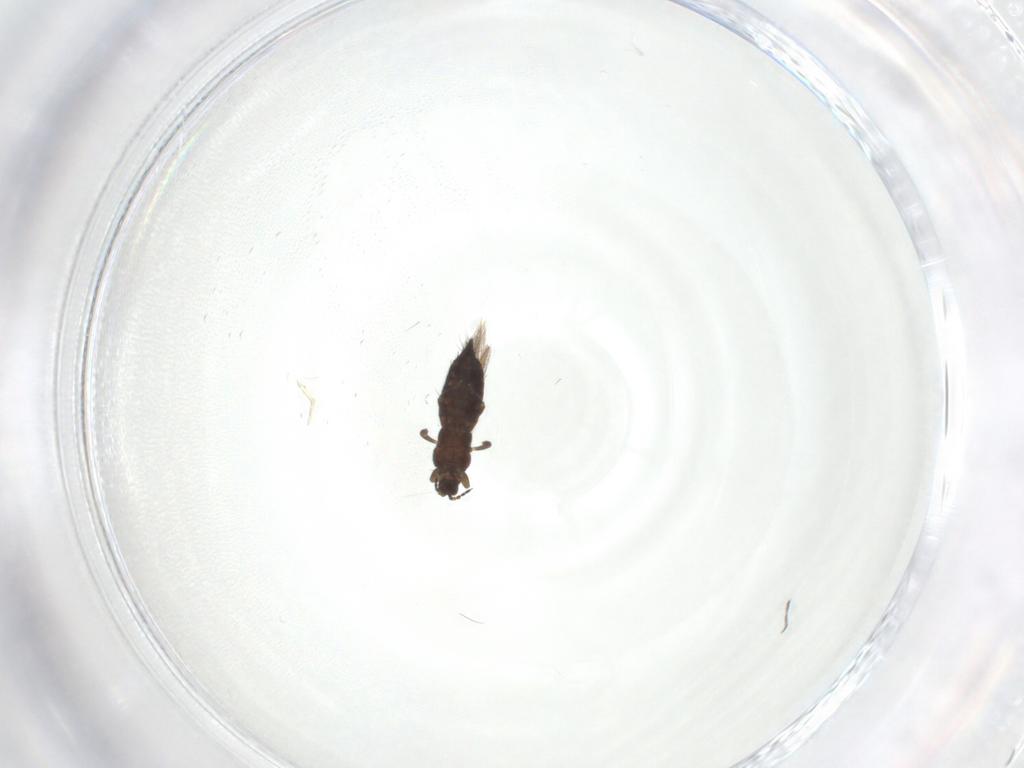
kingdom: Animalia
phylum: Arthropoda
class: Insecta
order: Thysanoptera
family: Thripidae
